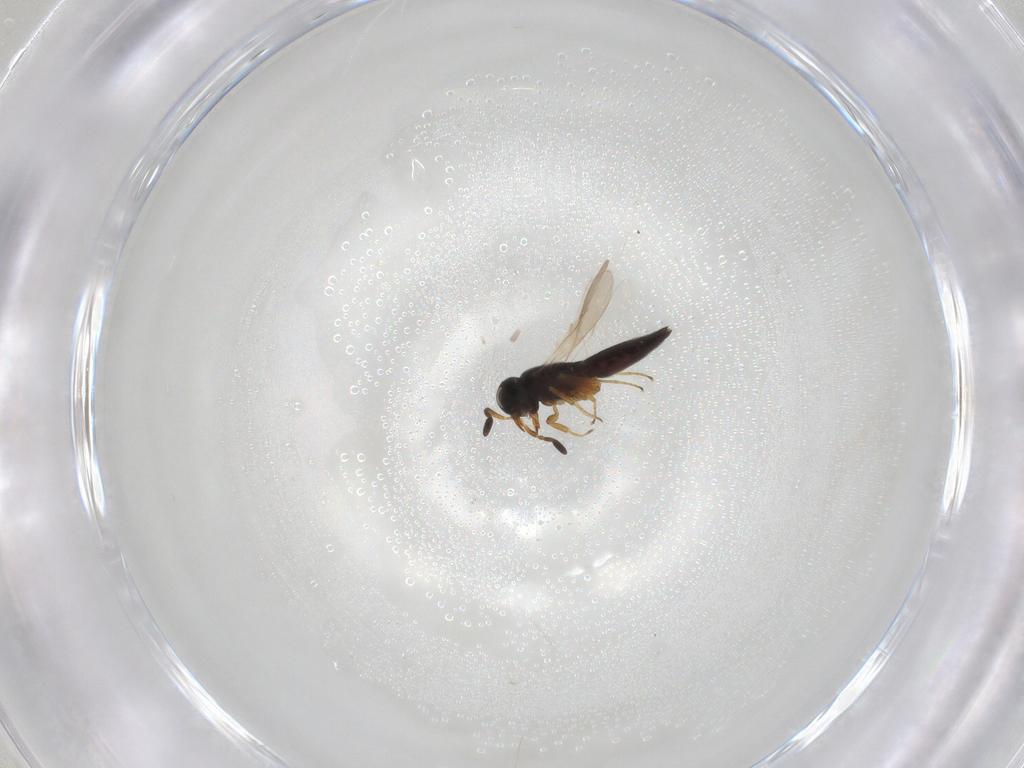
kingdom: Animalia
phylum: Arthropoda
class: Insecta
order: Hymenoptera
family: Scelionidae
